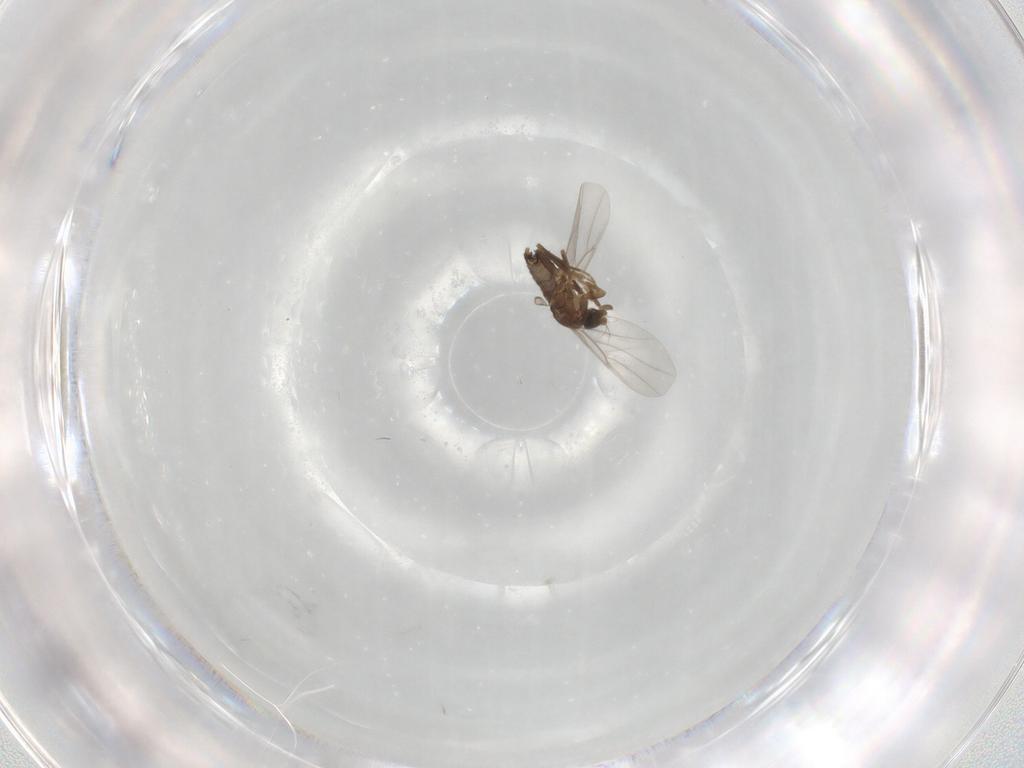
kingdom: Animalia
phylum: Arthropoda
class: Insecta
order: Diptera
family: Phoridae
